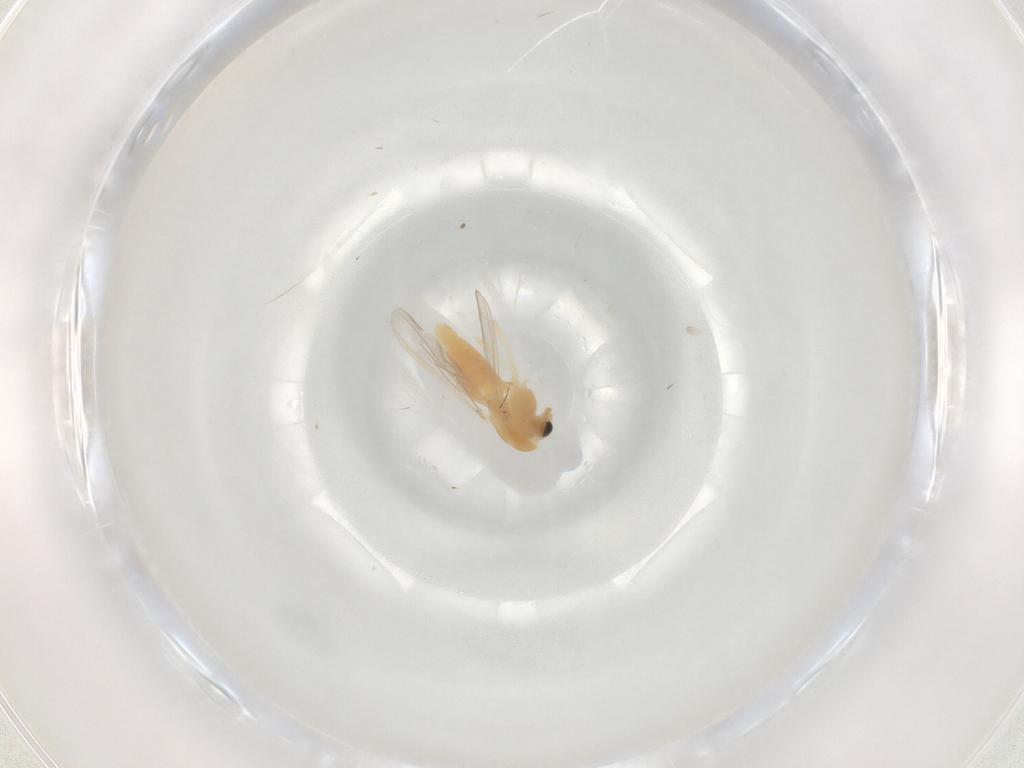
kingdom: Animalia
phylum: Arthropoda
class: Insecta
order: Diptera
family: Chironomidae
